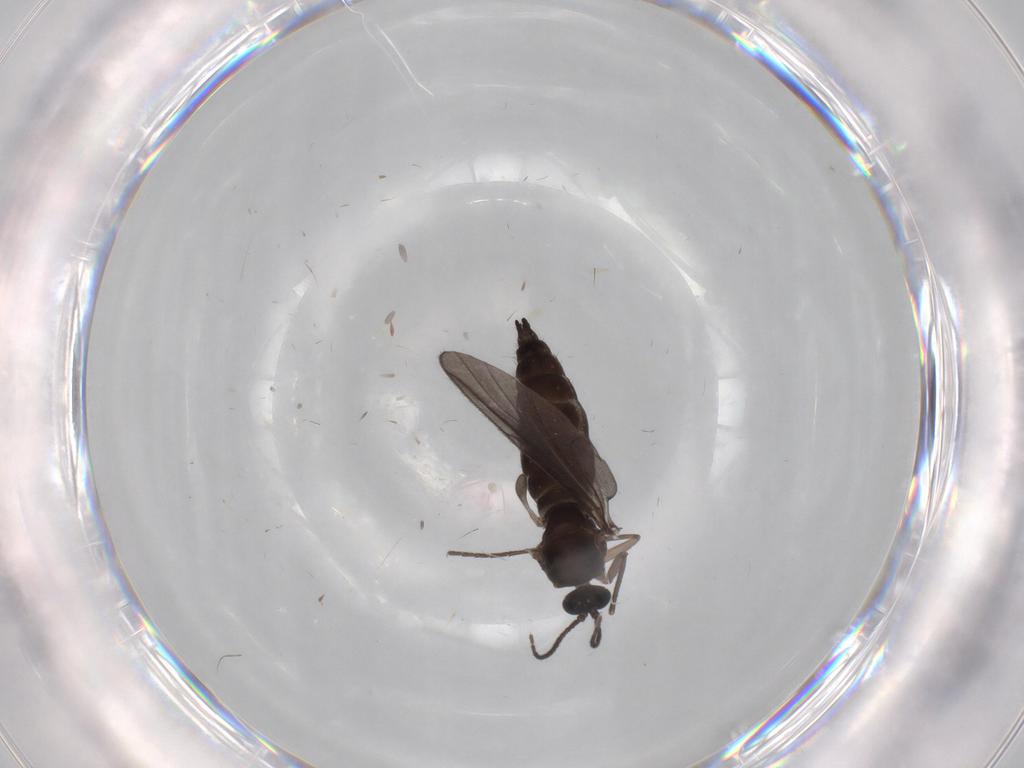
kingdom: Animalia
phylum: Arthropoda
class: Insecta
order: Diptera
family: Sciaridae
